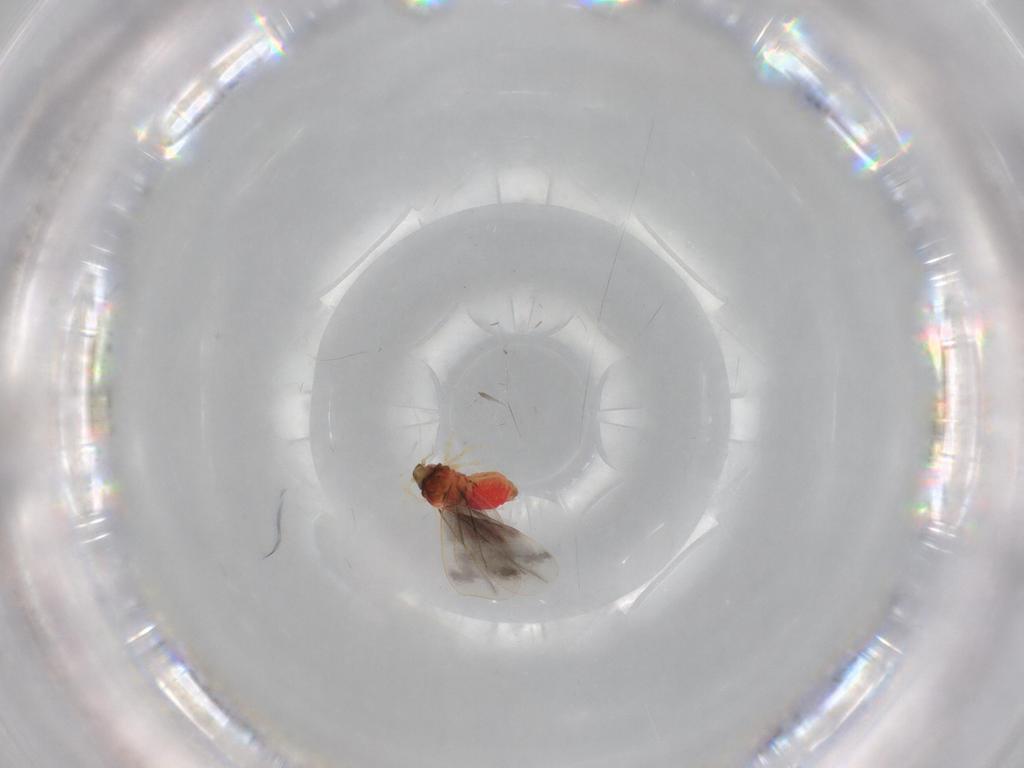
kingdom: Animalia
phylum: Arthropoda
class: Insecta
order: Hemiptera
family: Aleyrodidae
